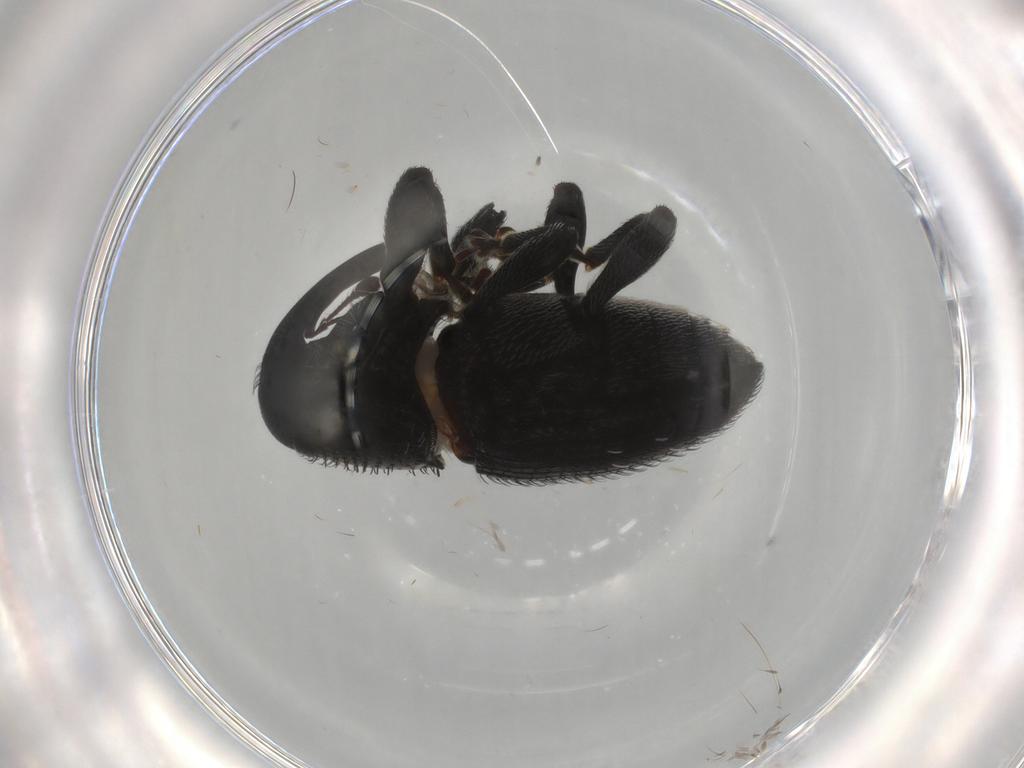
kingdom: Animalia
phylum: Arthropoda
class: Insecta
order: Coleoptera
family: Curculionidae
